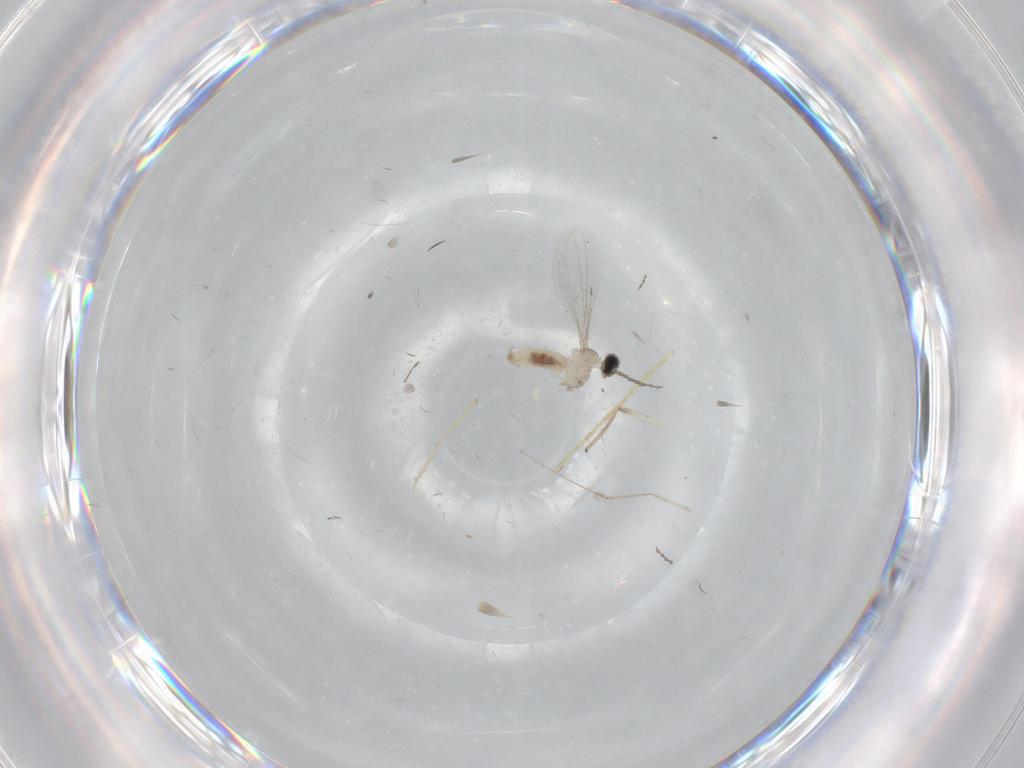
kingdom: Animalia
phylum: Arthropoda
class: Insecta
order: Diptera
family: Cecidomyiidae
